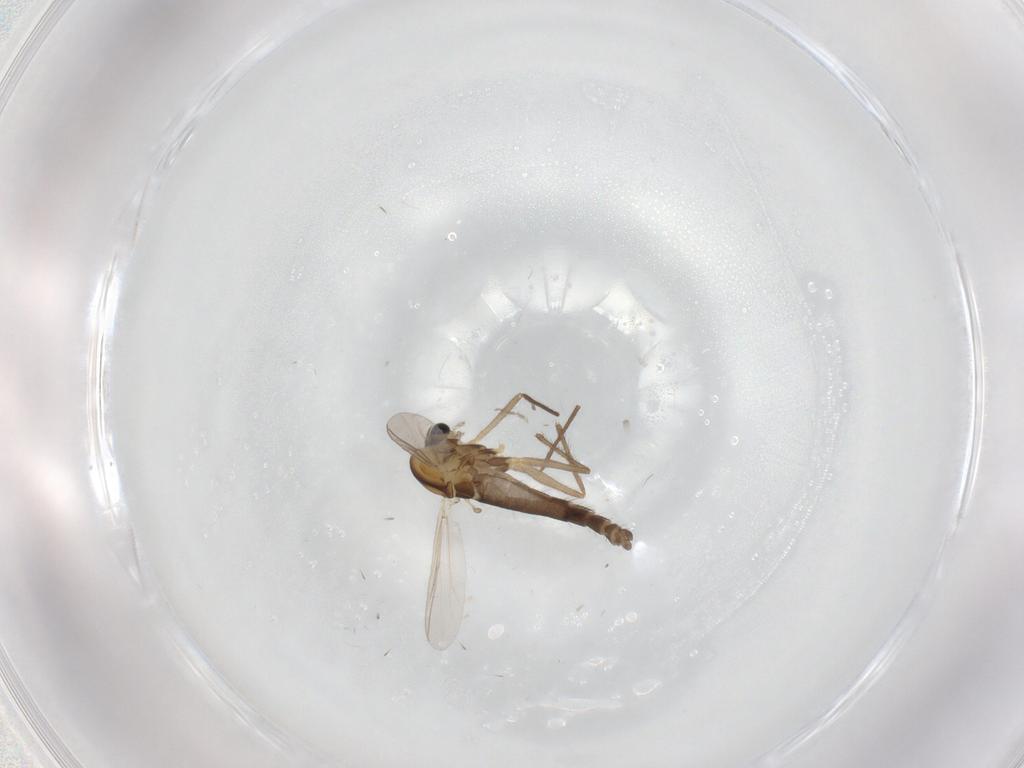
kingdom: Animalia
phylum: Arthropoda
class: Insecta
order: Diptera
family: Chironomidae
